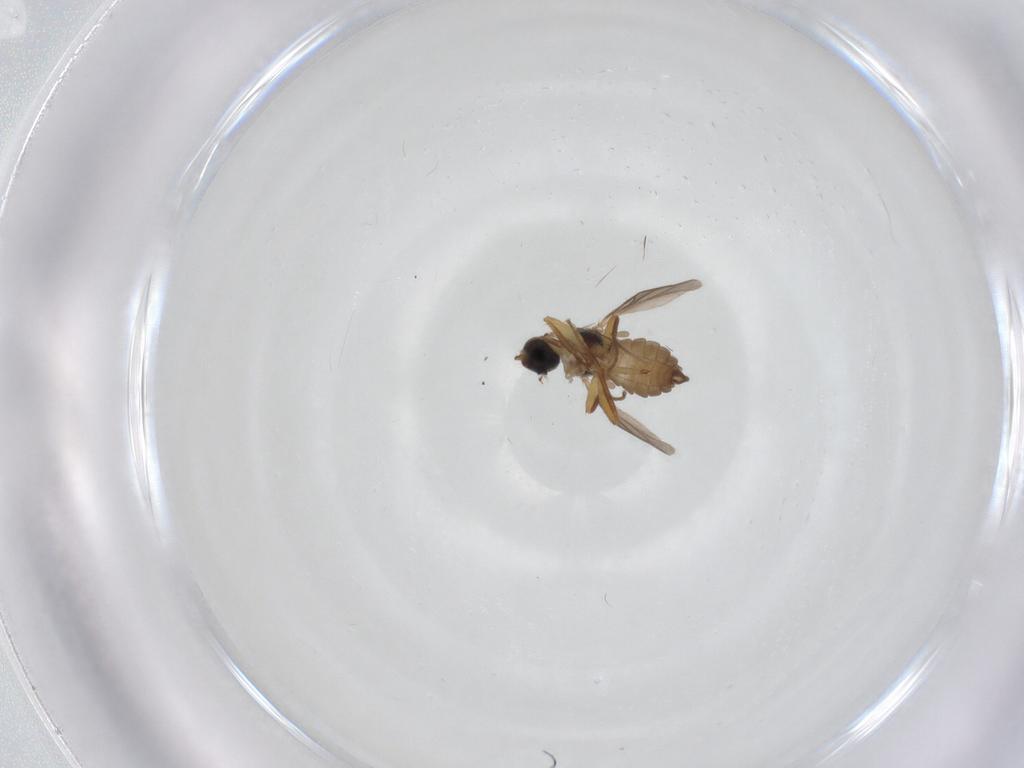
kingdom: Animalia
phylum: Arthropoda
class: Insecta
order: Diptera
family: Hybotidae
